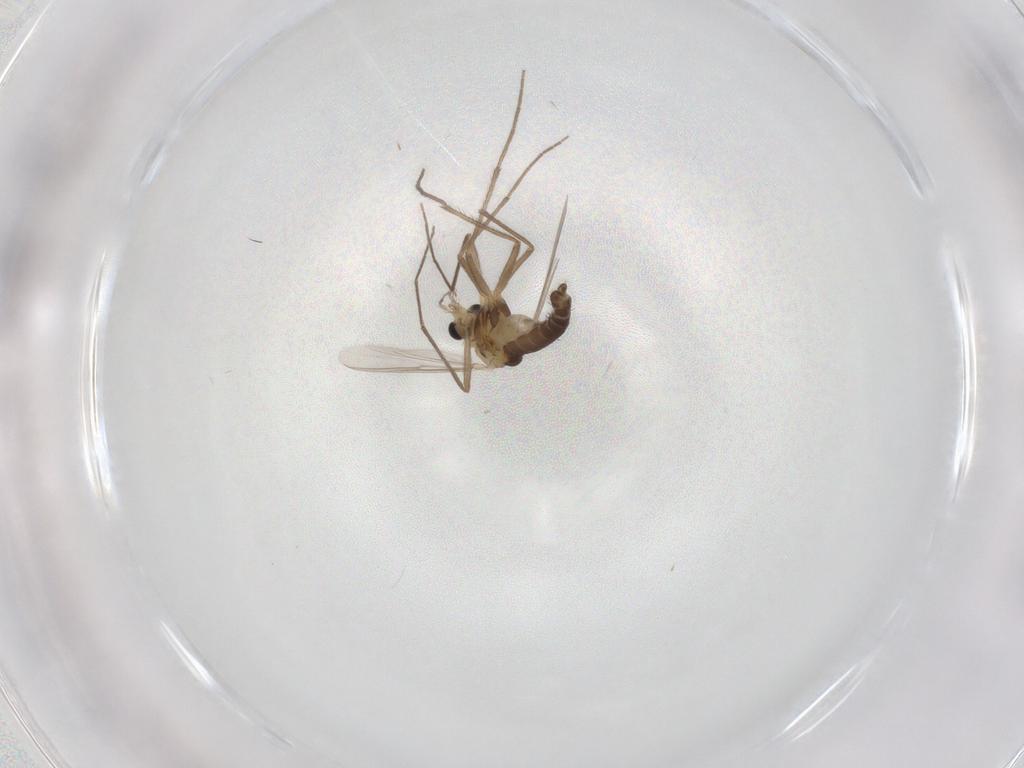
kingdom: Animalia
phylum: Arthropoda
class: Insecta
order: Diptera
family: Chironomidae
